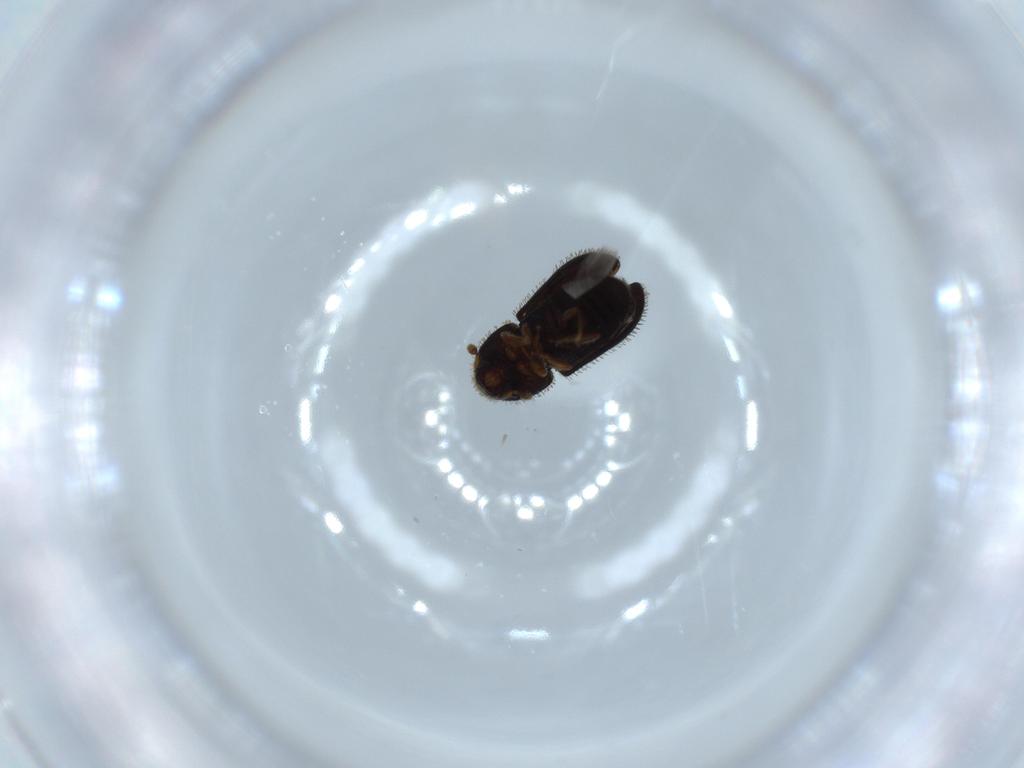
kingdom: Animalia
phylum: Arthropoda
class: Insecta
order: Coleoptera
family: Curculionidae
